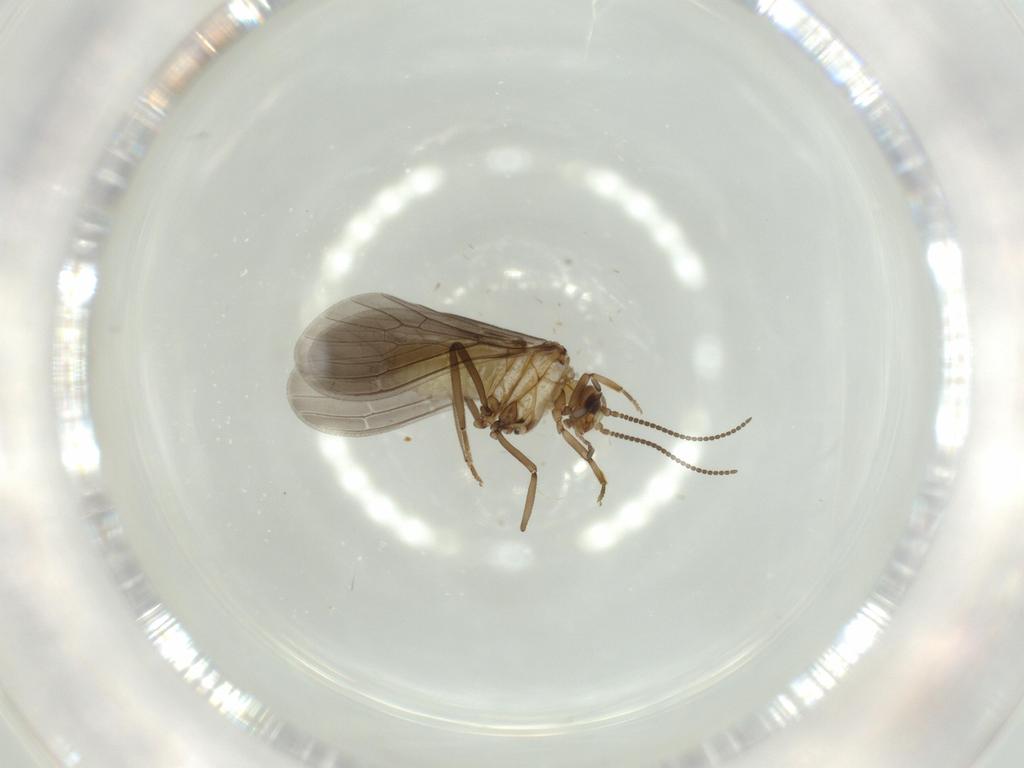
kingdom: Animalia
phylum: Arthropoda
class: Insecta
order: Neuroptera
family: Coniopterygidae
